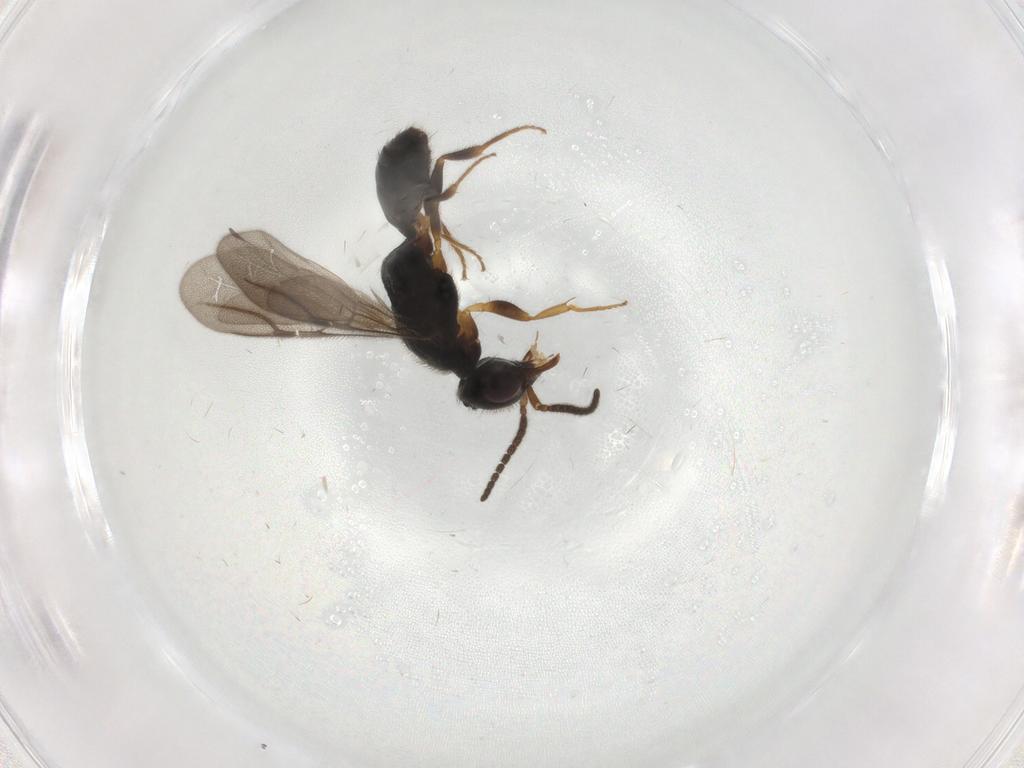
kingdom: Animalia
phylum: Arthropoda
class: Insecta
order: Hymenoptera
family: Bethylidae
